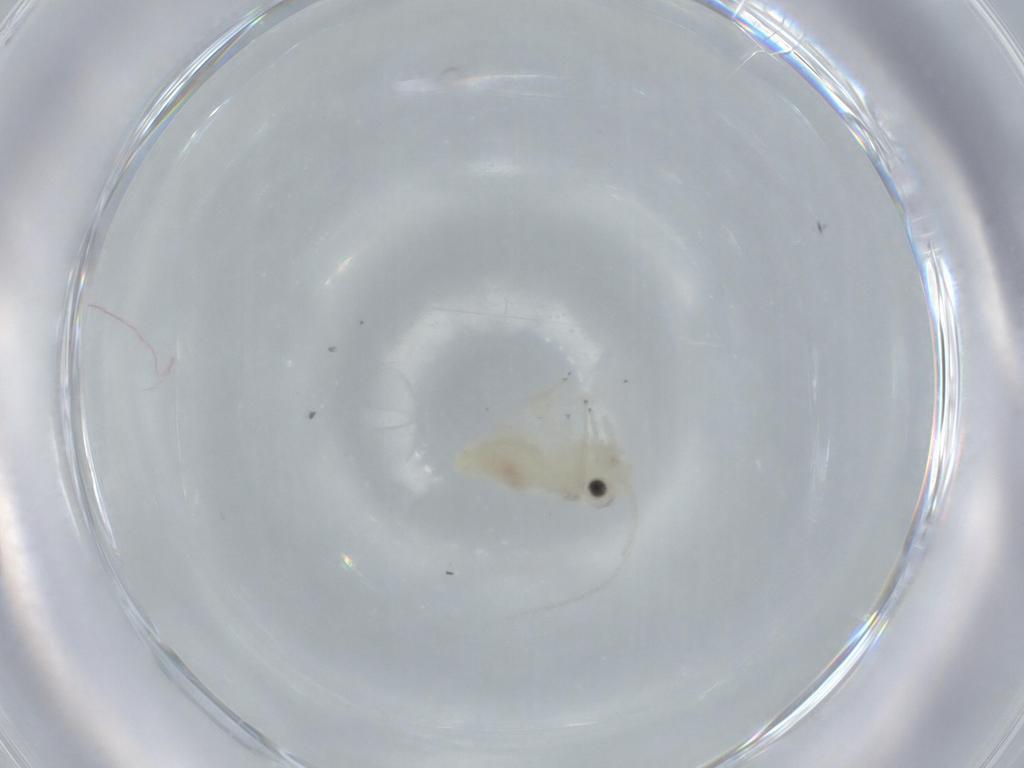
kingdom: Animalia
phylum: Arthropoda
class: Insecta
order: Psocodea
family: Caeciliusidae
